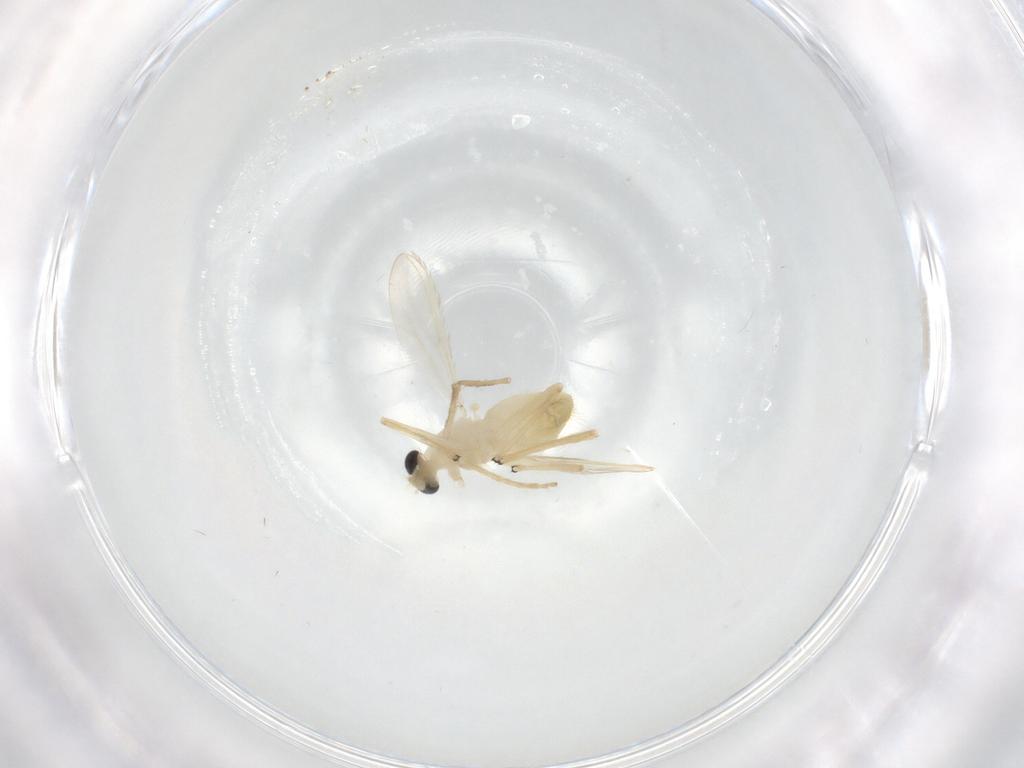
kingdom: Animalia
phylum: Arthropoda
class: Insecta
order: Diptera
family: Chironomidae
